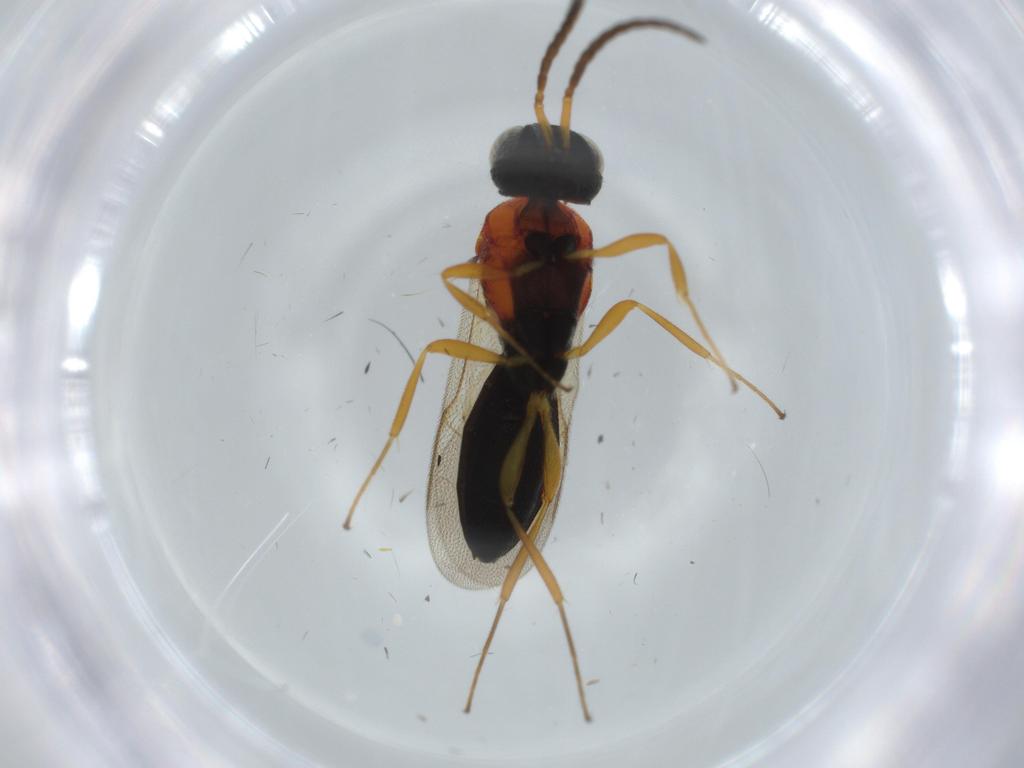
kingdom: Animalia
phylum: Arthropoda
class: Insecta
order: Hymenoptera
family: Scelionidae
